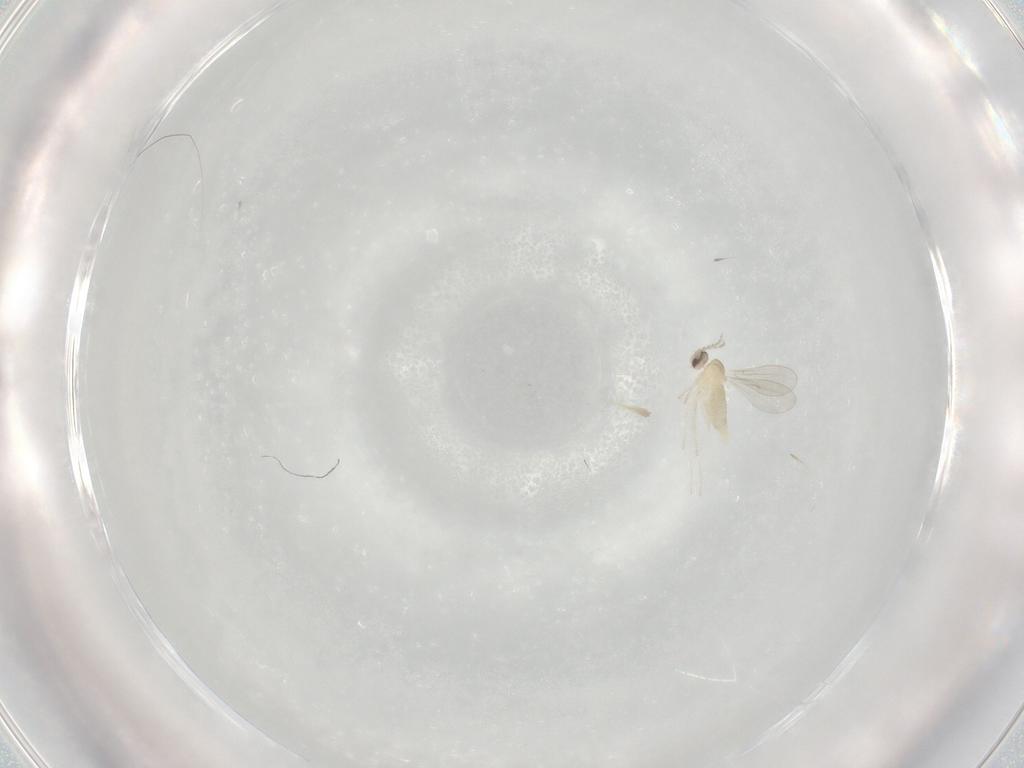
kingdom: Animalia
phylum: Arthropoda
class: Insecta
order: Diptera
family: Cecidomyiidae
